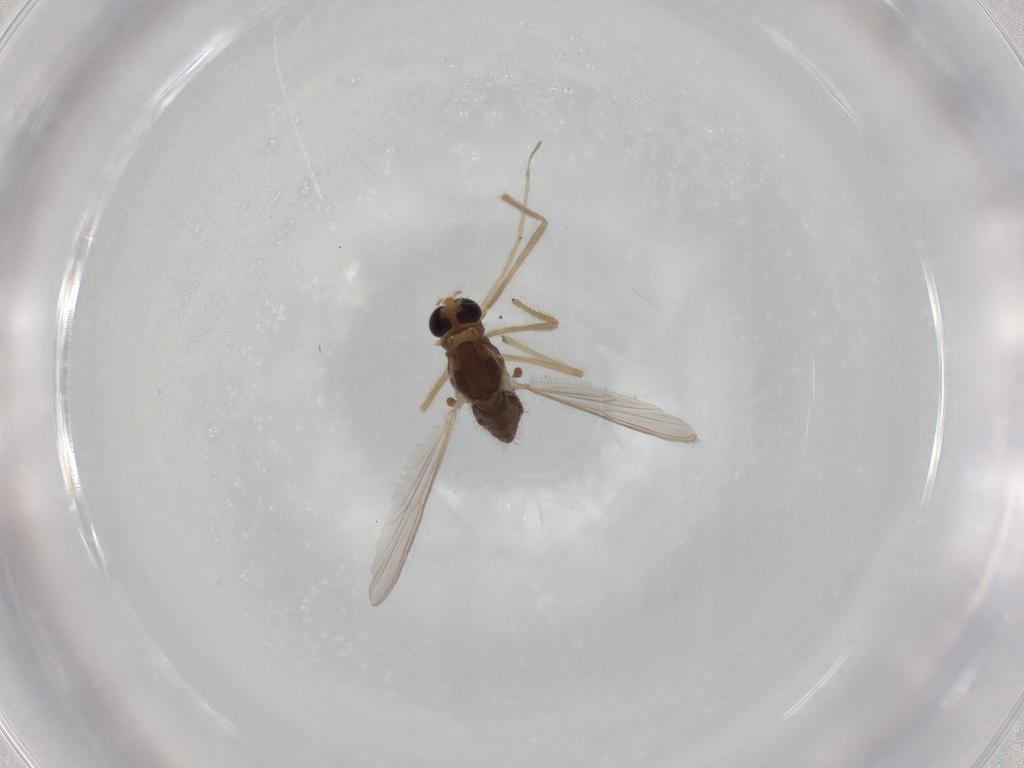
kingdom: Animalia
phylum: Arthropoda
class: Insecta
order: Diptera
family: Chironomidae
